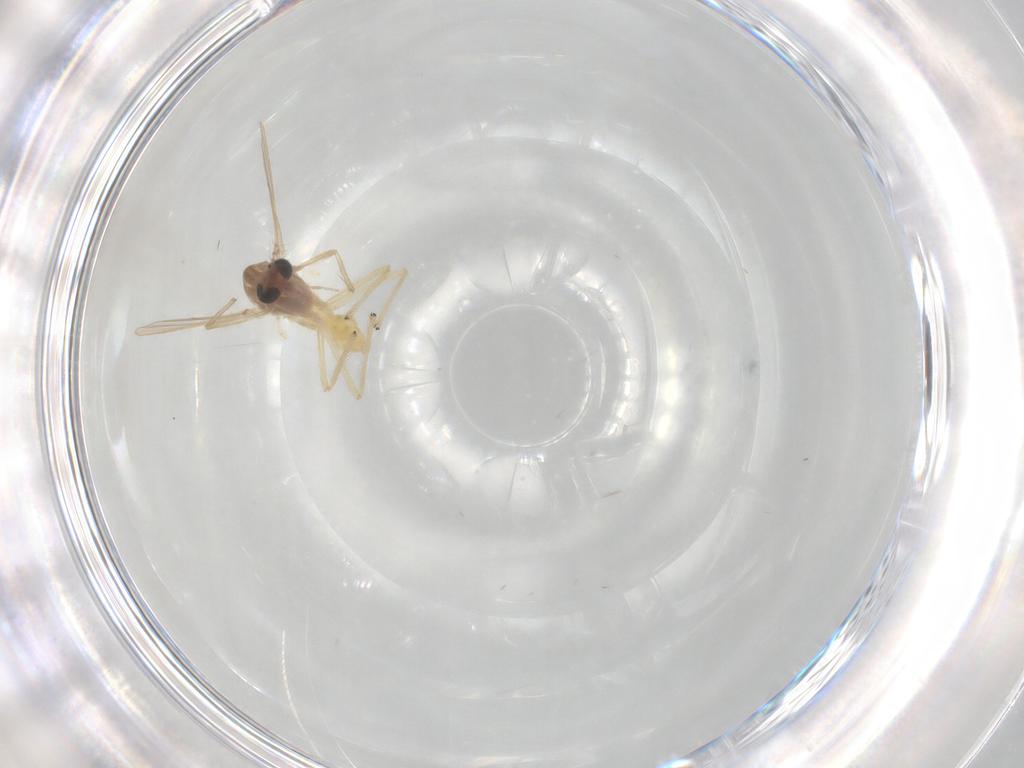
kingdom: Animalia
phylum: Arthropoda
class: Insecta
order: Diptera
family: Chironomidae
